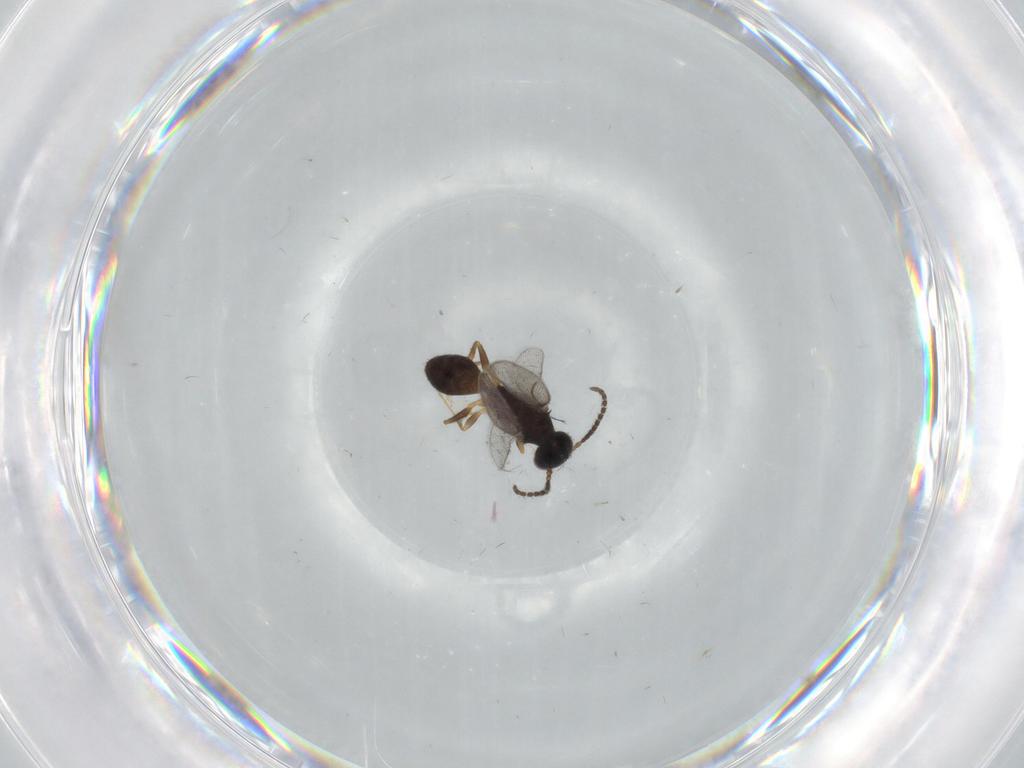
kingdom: Animalia
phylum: Arthropoda
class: Insecta
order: Hymenoptera
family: Bethylidae
